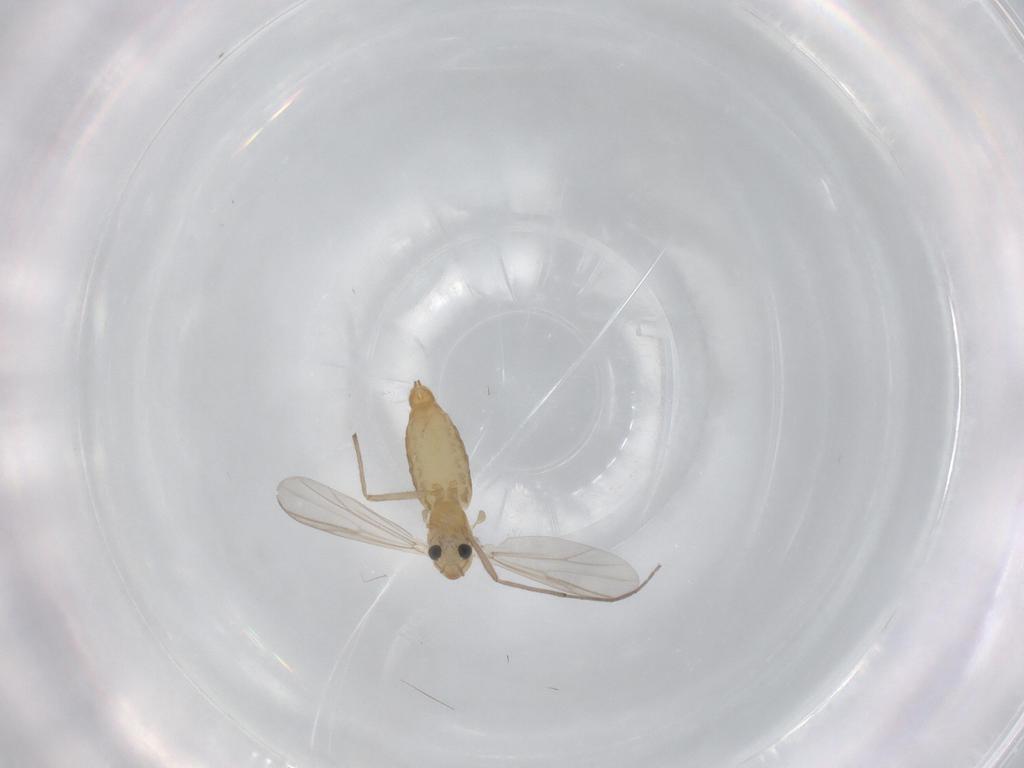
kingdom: Animalia
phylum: Arthropoda
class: Insecta
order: Diptera
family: Chironomidae
